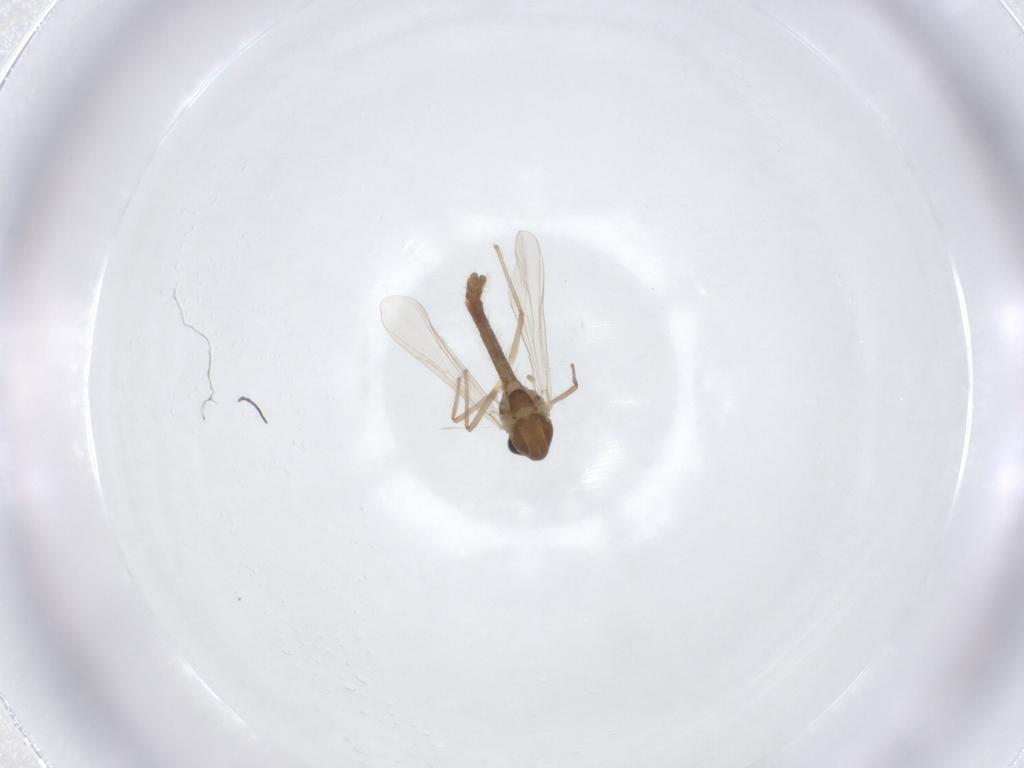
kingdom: Animalia
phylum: Arthropoda
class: Insecta
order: Diptera
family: Chironomidae
